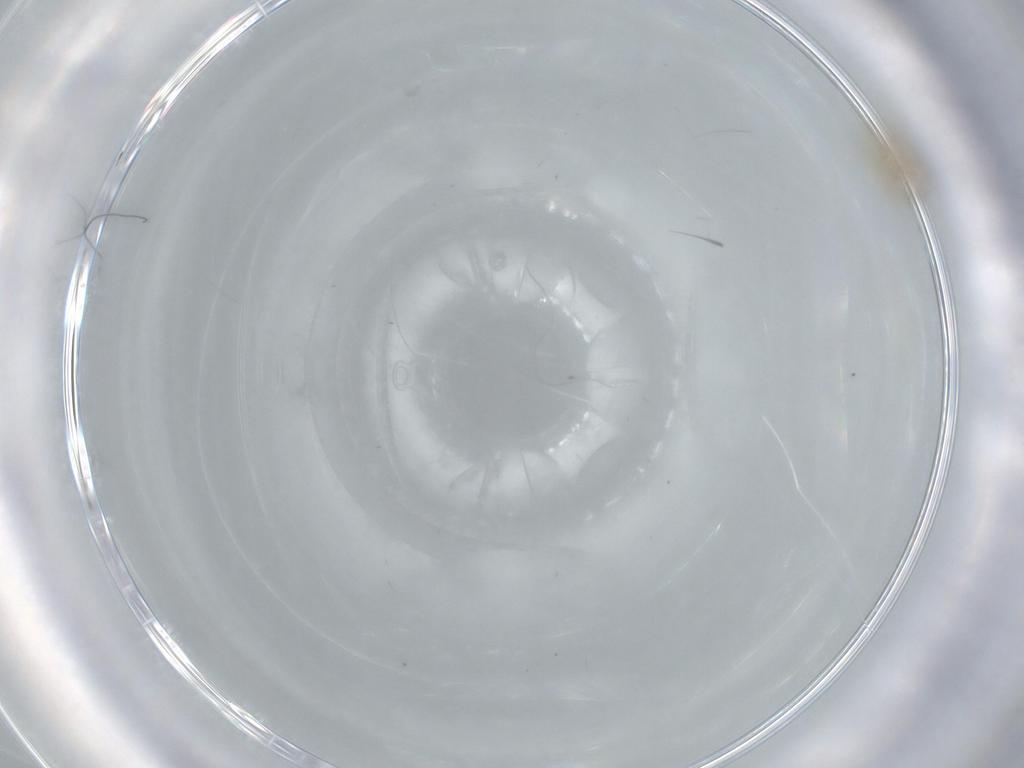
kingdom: Animalia
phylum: Arthropoda
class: Insecta
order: Hymenoptera
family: Mymaridae
